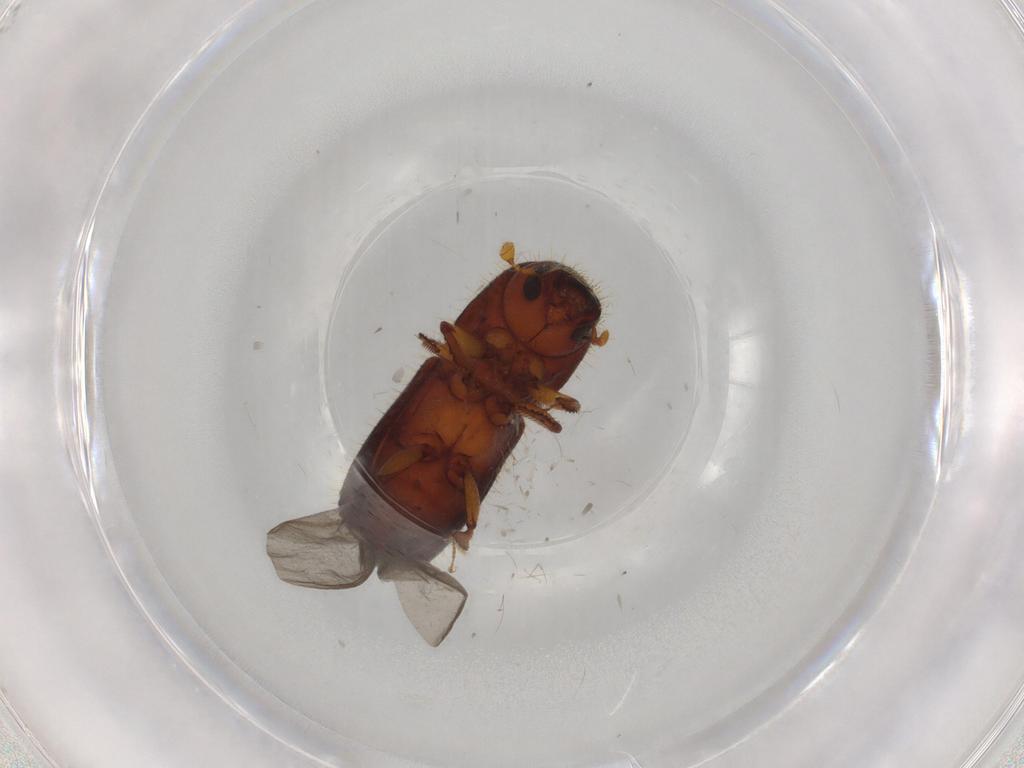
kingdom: Animalia
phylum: Arthropoda
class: Insecta
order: Coleoptera
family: Curculionidae
